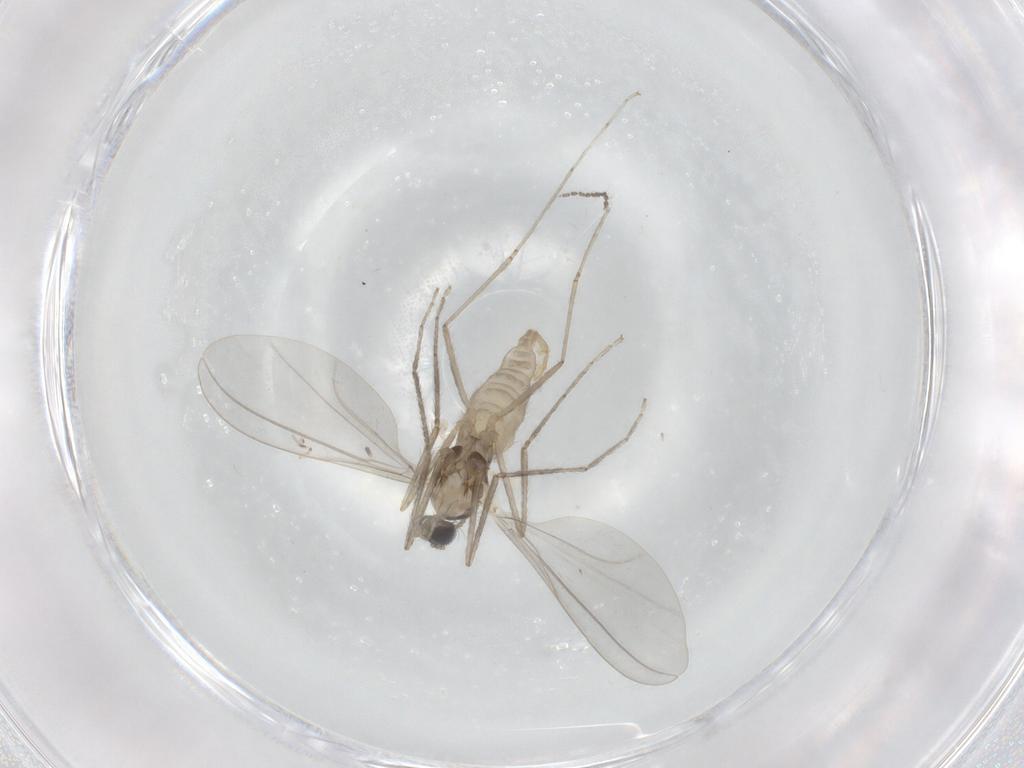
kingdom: Animalia
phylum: Arthropoda
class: Insecta
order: Diptera
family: Cecidomyiidae
